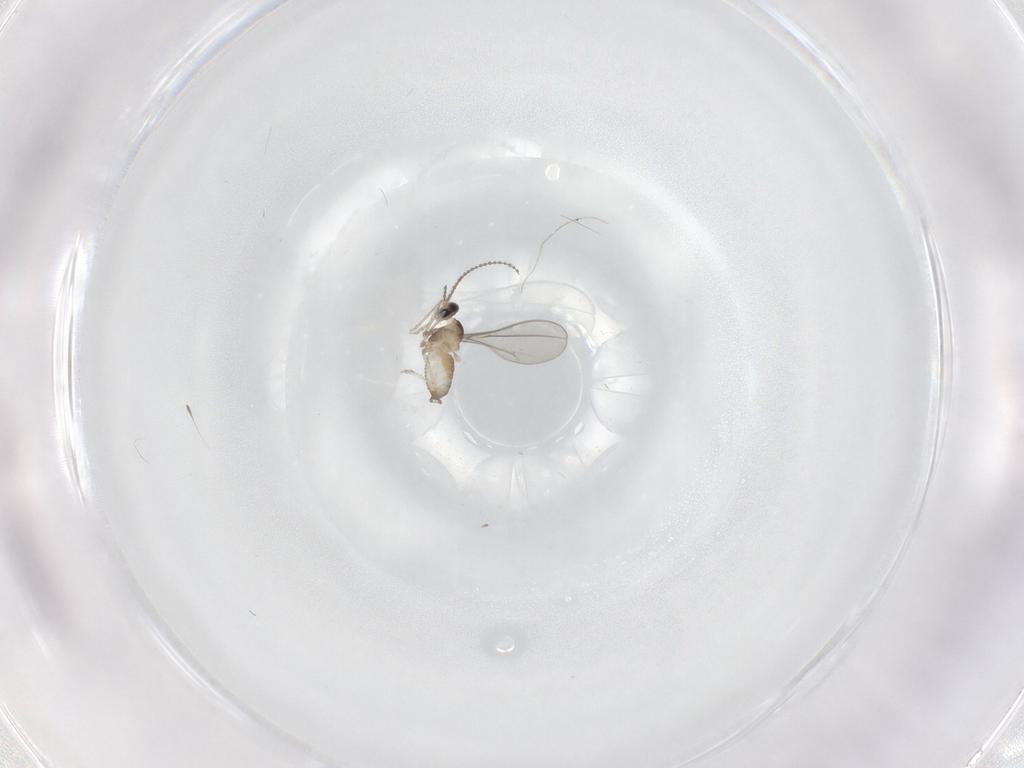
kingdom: Animalia
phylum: Arthropoda
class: Insecta
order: Diptera
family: Cecidomyiidae
